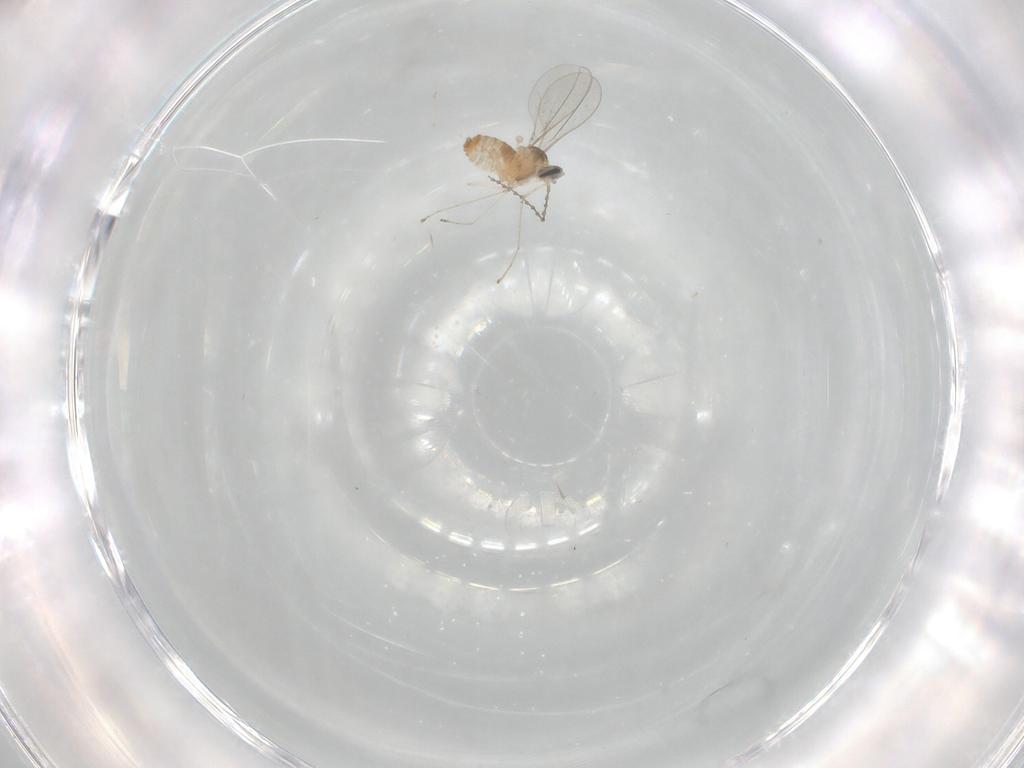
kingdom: Animalia
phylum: Arthropoda
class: Insecta
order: Diptera
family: Cecidomyiidae
